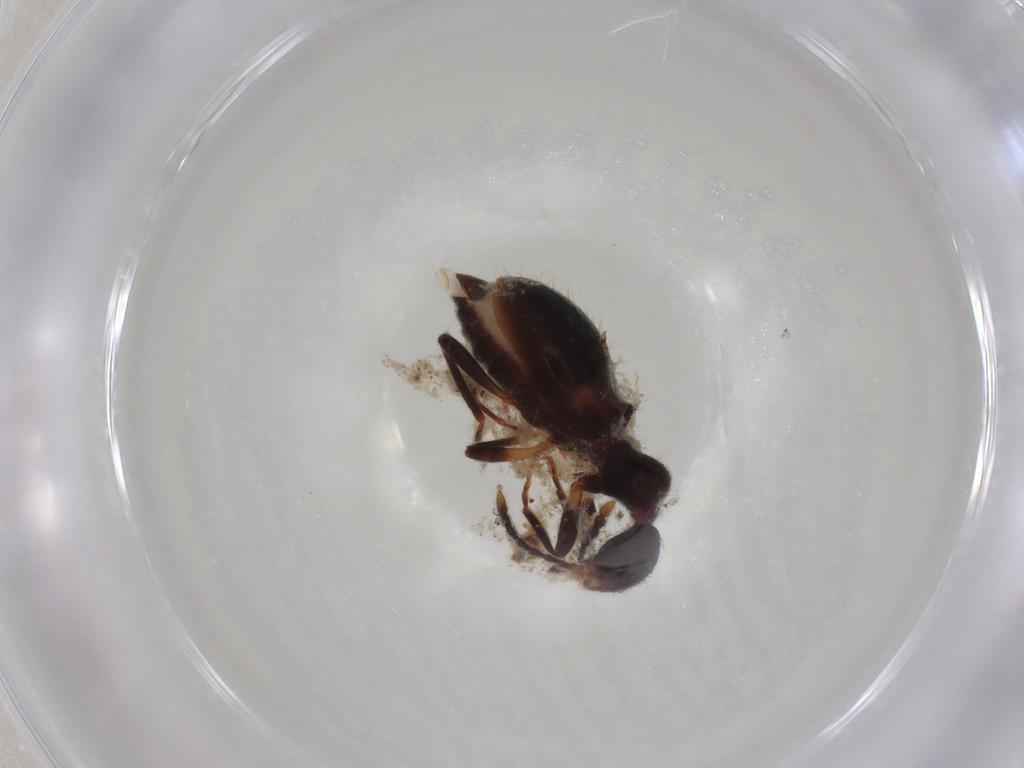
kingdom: Animalia
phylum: Arthropoda
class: Insecta
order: Coleoptera
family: Anthicidae
